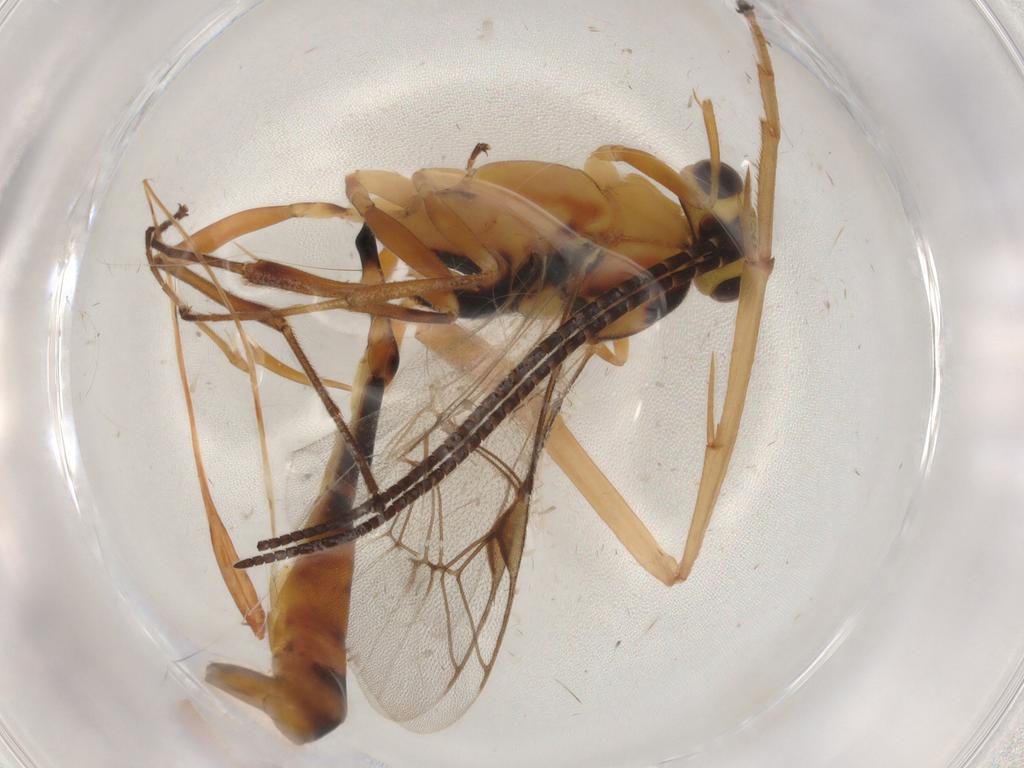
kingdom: Animalia
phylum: Arthropoda
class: Insecta
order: Hymenoptera
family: Ichneumonidae
